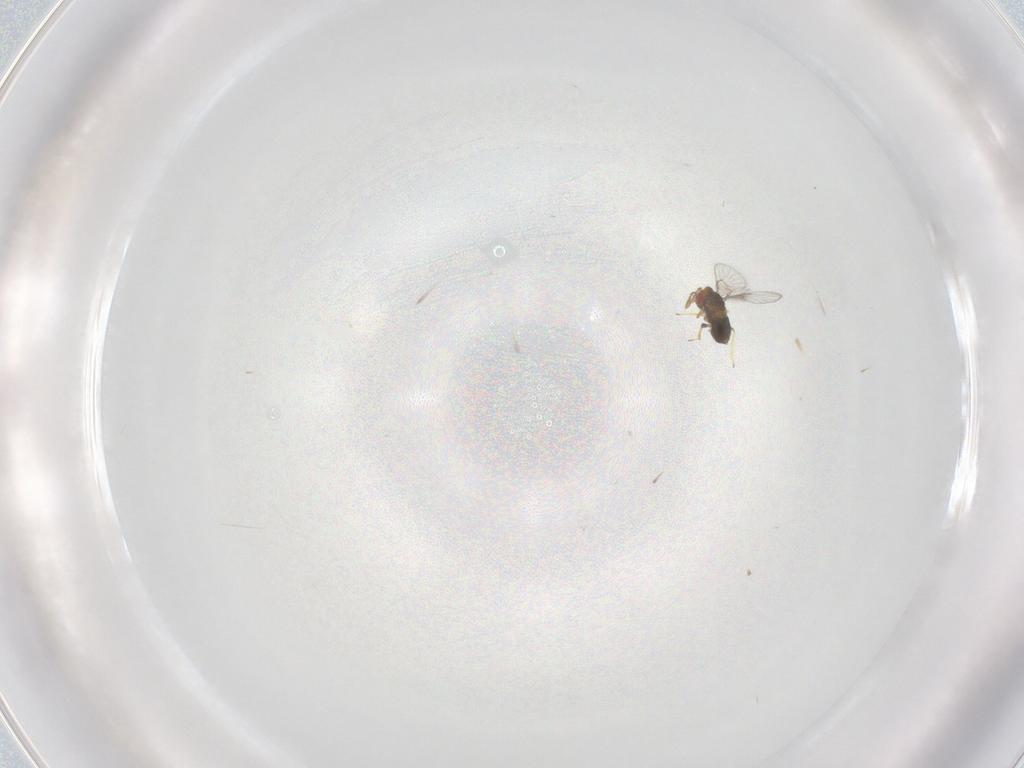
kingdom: Animalia
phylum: Arthropoda
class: Insecta
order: Hymenoptera
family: Trichogrammatidae
